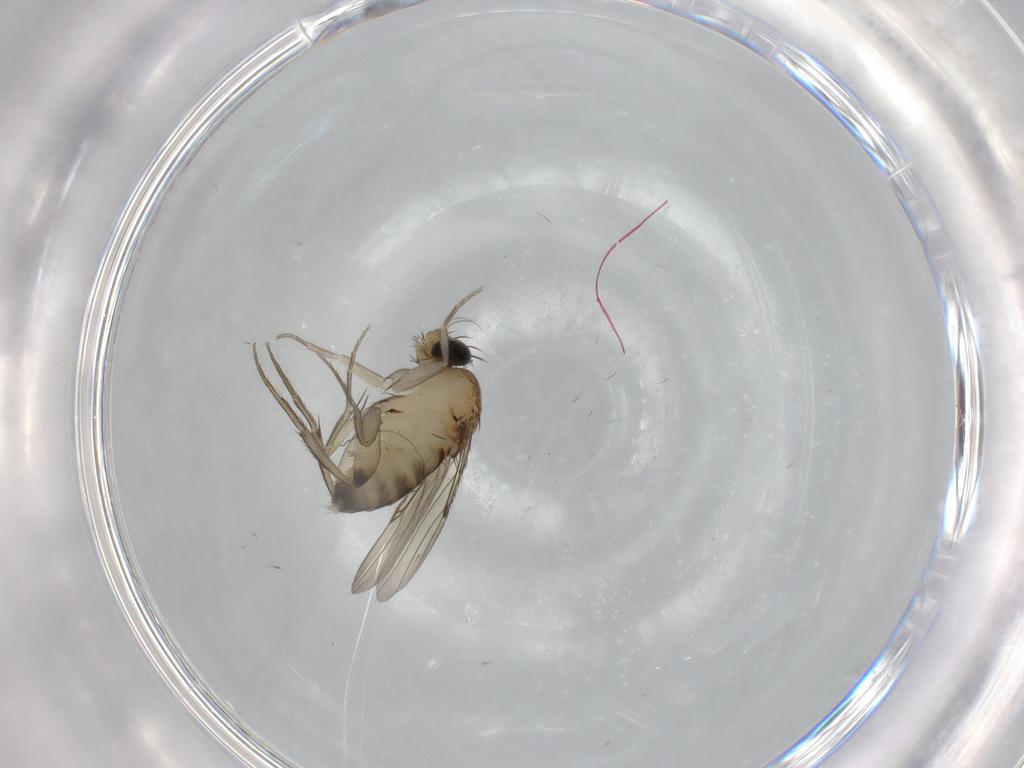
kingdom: Animalia
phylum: Arthropoda
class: Insecta
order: Diptera
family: Phoridae
